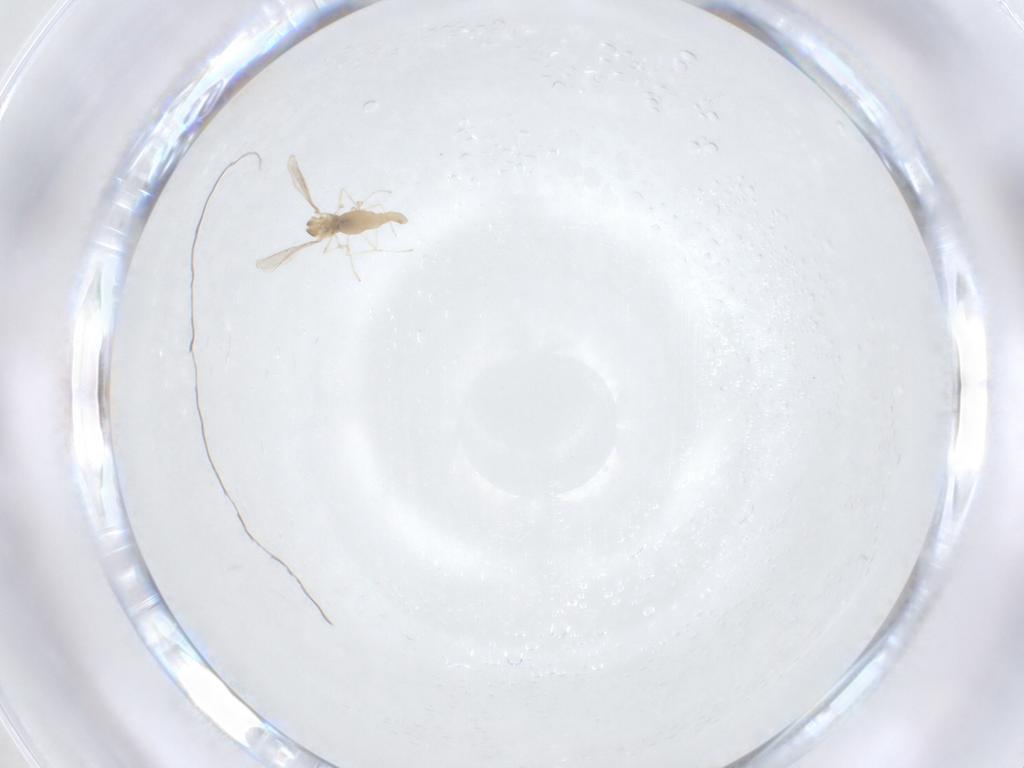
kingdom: Animalia
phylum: Arthropoda
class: Insecta
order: Diptera
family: Cecidomyiidae
